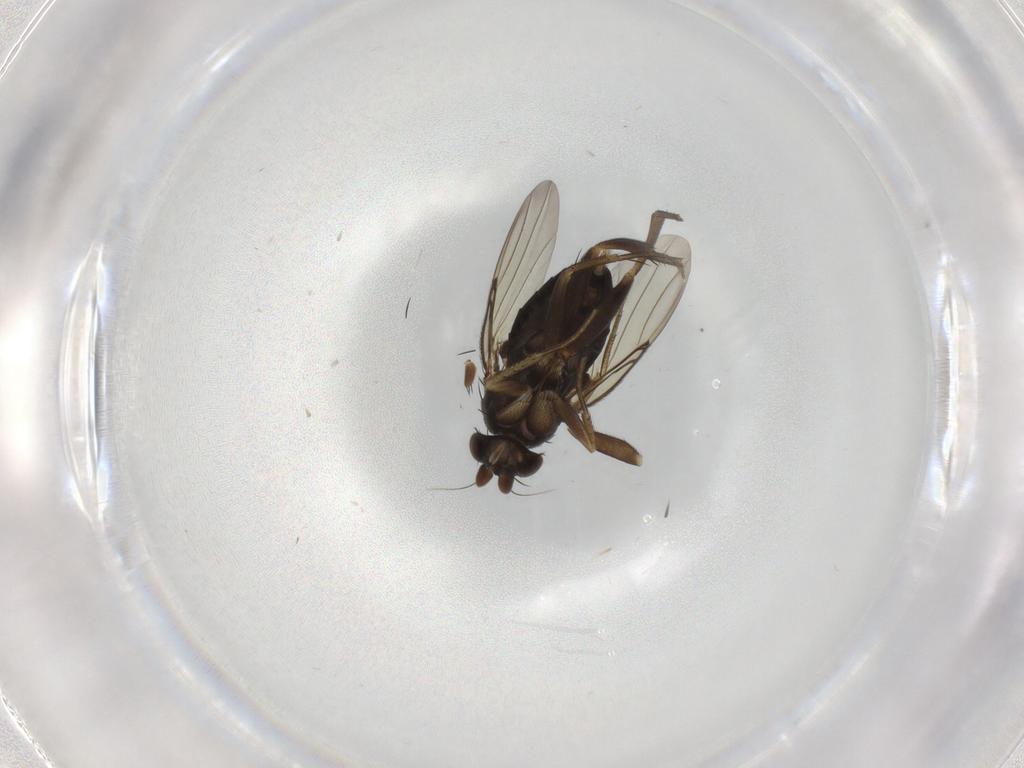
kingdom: Animalia
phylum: Arthropoda
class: Insecta
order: Diptera
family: Phoridae
